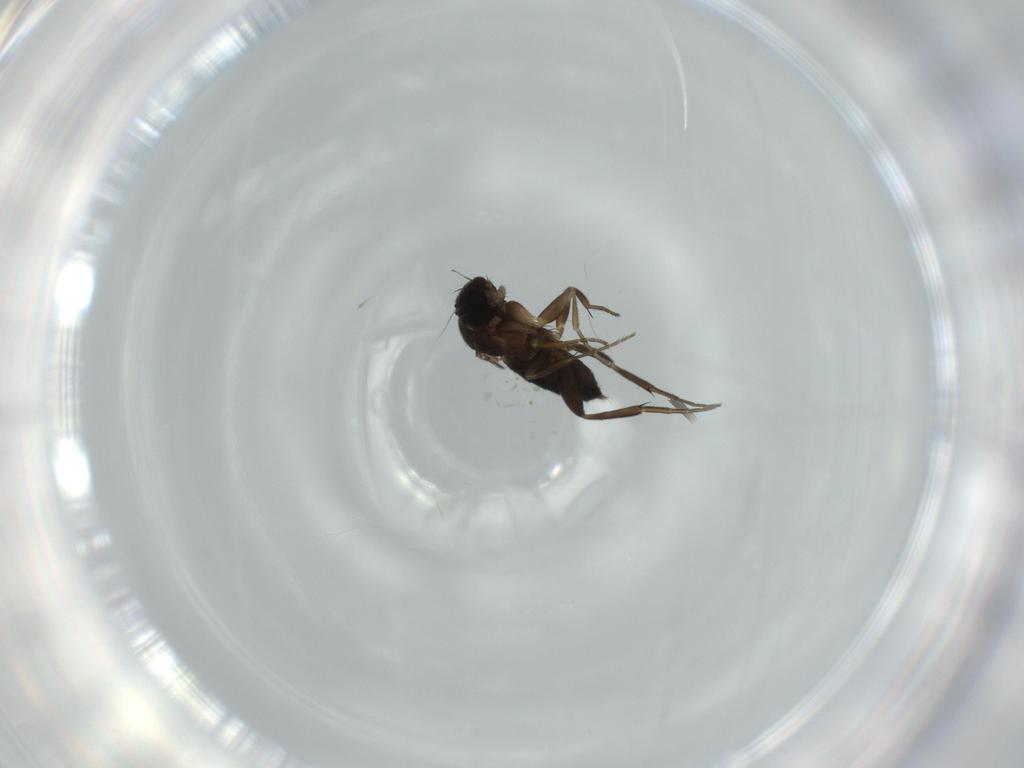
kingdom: Animalia
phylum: Arthropoda
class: Insecta
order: Diptera
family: Phoridae
